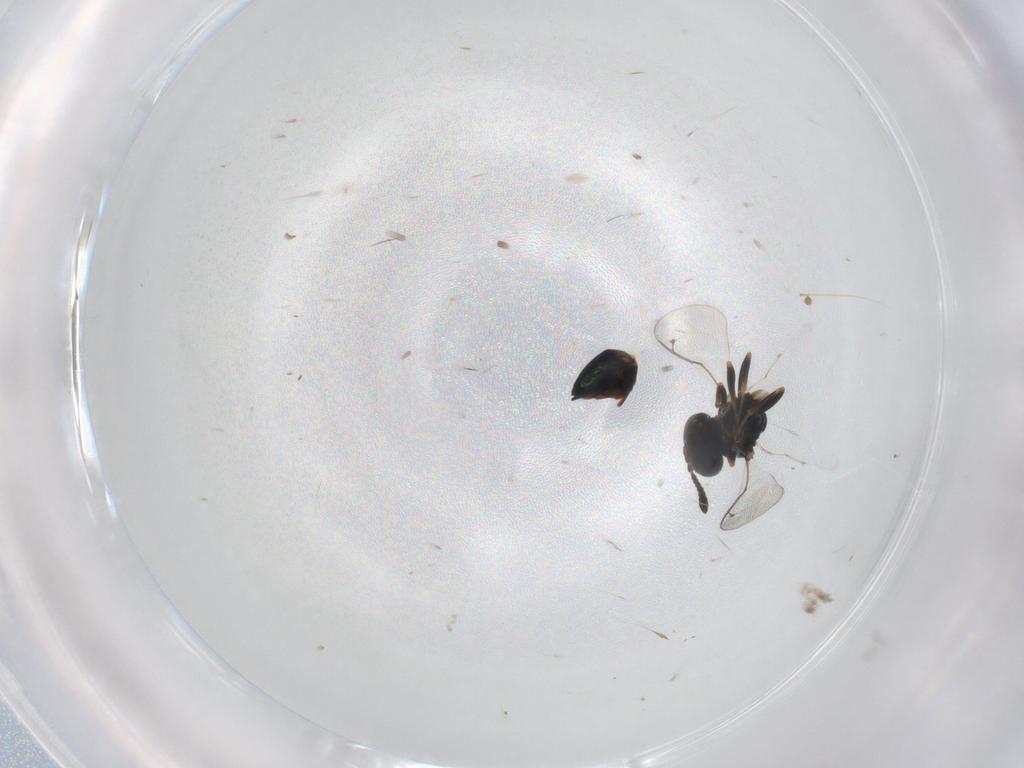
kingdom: Animalia
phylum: Arthropoda
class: Insecta
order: Hymenoptera
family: Pteromalidae
